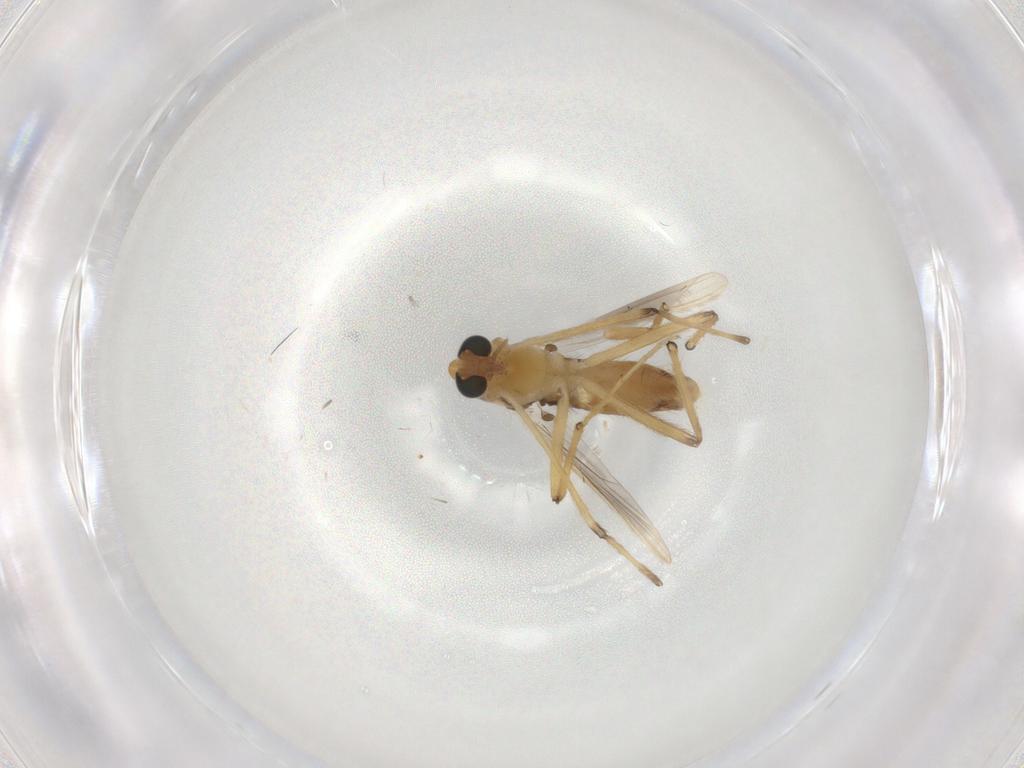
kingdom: Animalia
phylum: Arthropoda
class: Insecta
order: Diptera
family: Chironomidae
